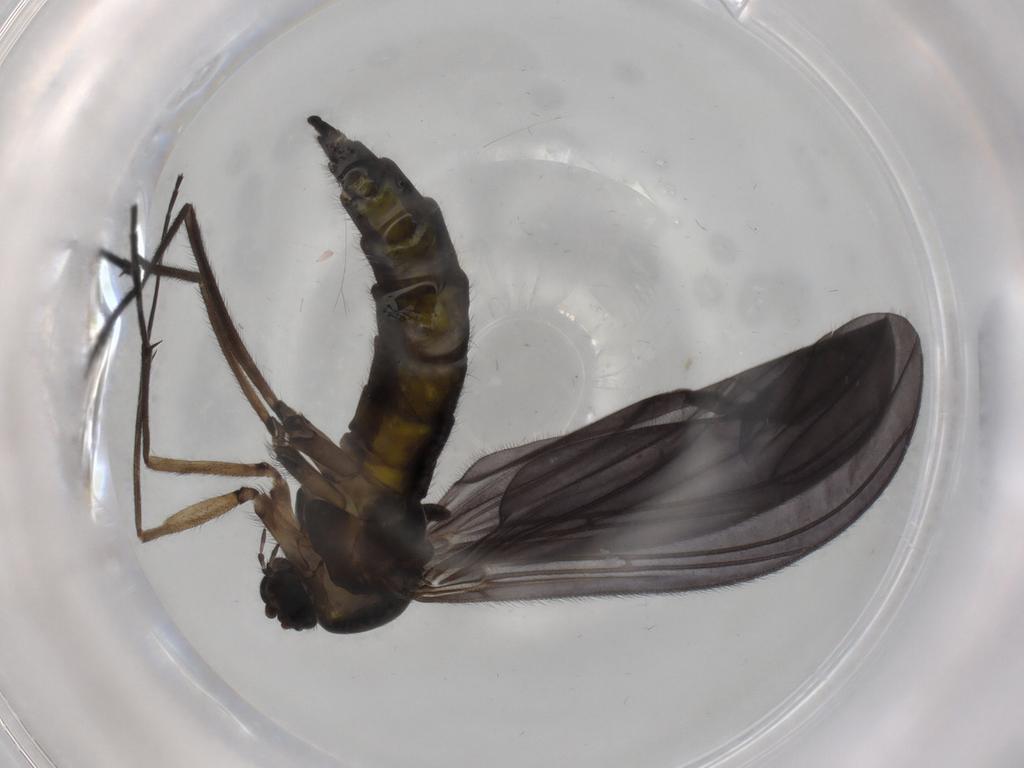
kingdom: Animalia
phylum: Arthropoda
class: Insecta
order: Diptera
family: Sciaridae
